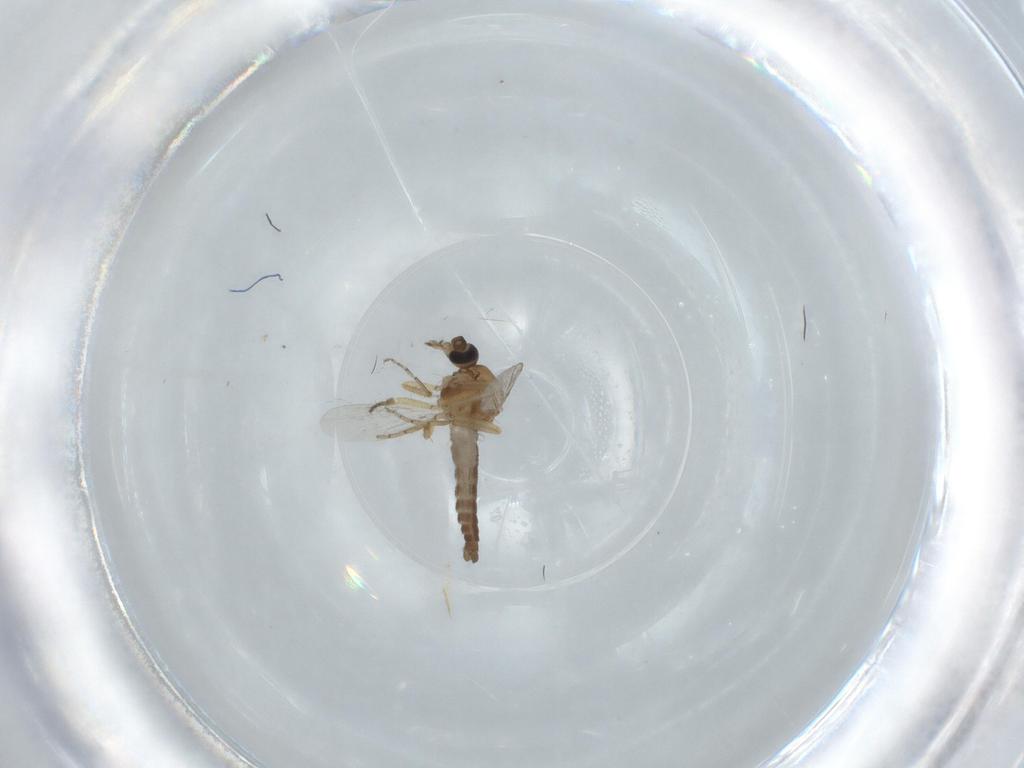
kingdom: Animalia
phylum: Arthropoda
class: Insecta
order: Diptera
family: Ceratopogonidae
